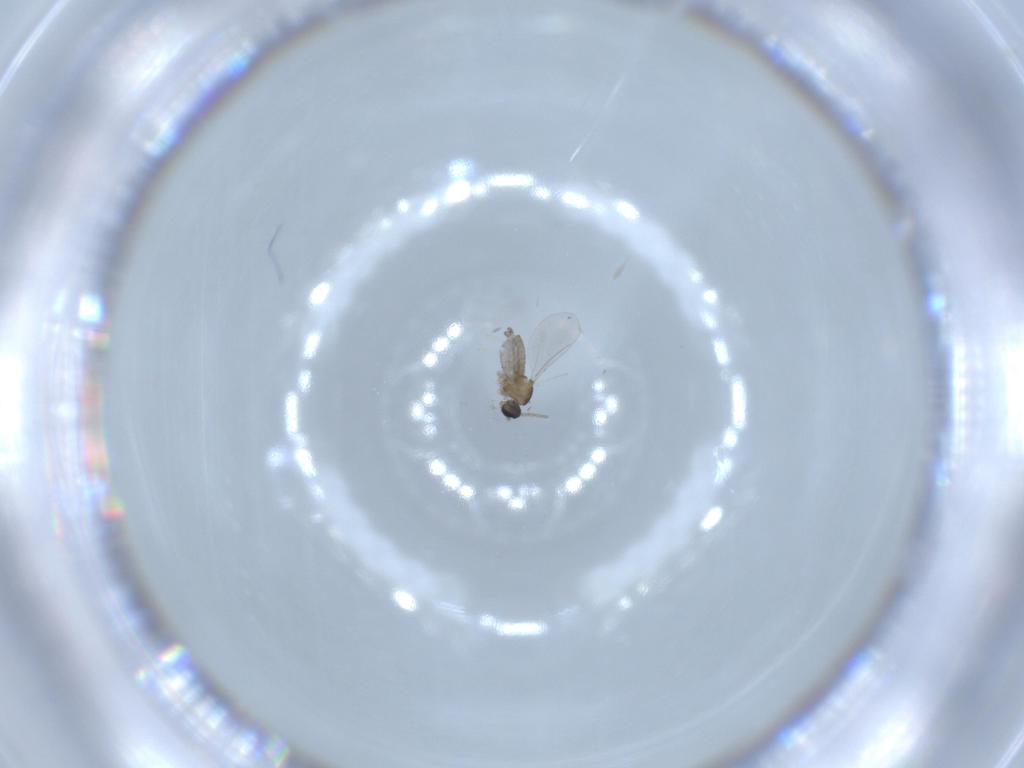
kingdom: Animalia
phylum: Arthropoda
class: Insecta
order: Diptera
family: Cecidomyiidae
